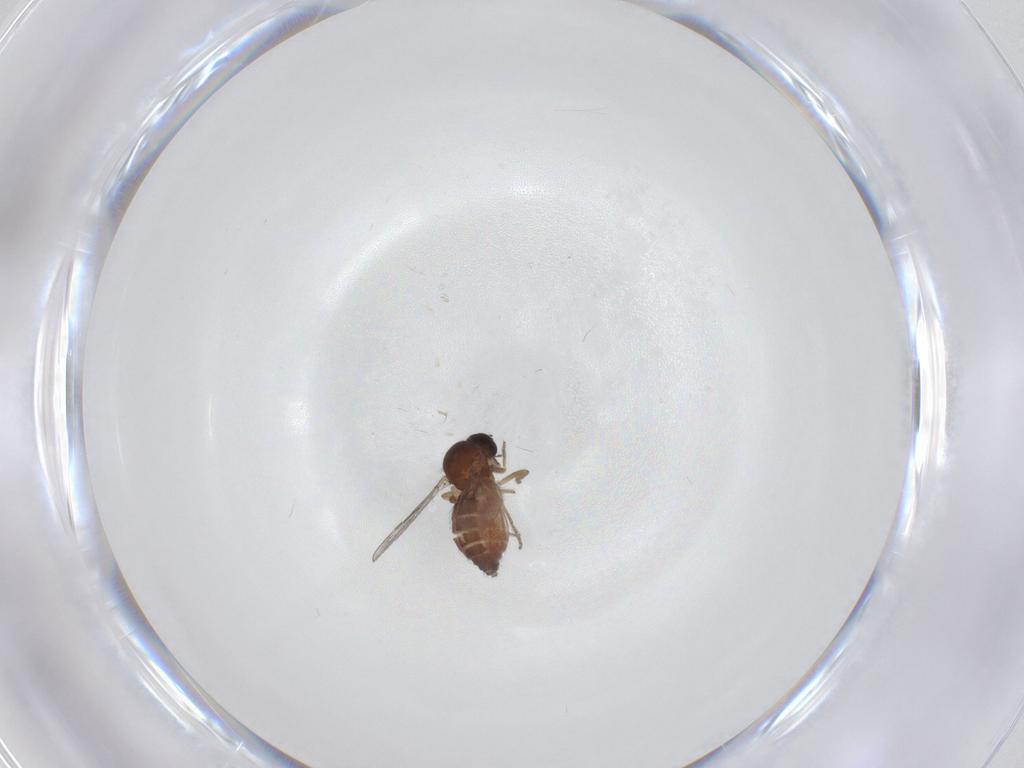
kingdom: Animalia
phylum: Arthropoda
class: Insecta
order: Diptera
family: Ceratopogonidae
